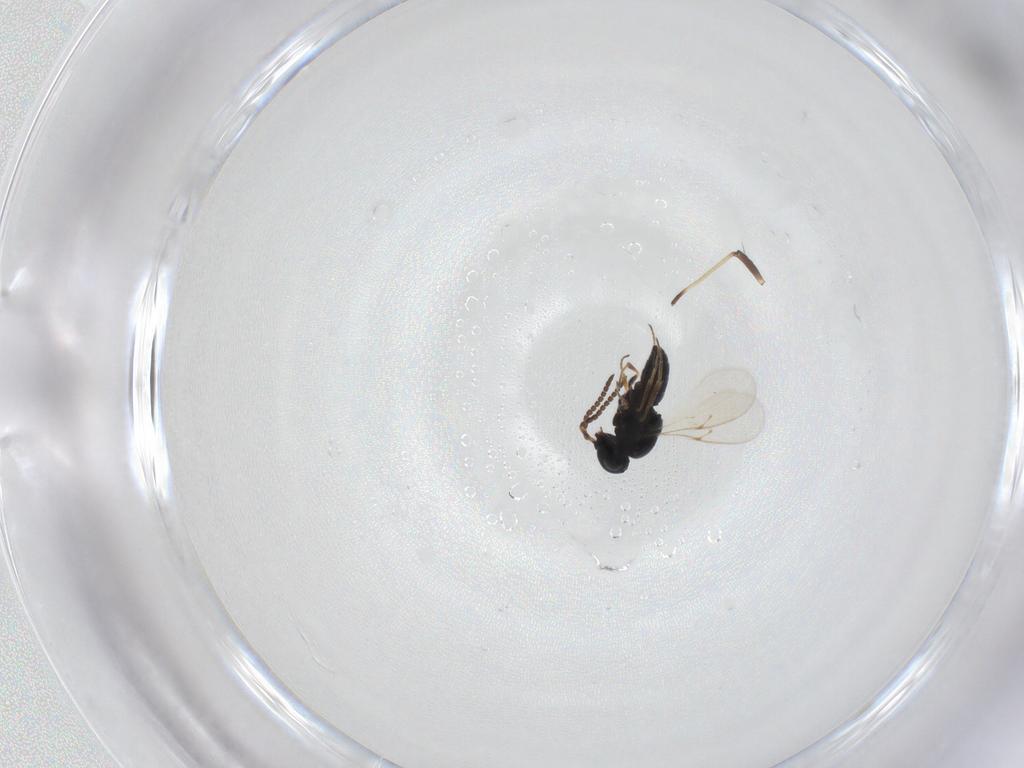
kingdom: Animalia
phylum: Arthropoda
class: Insecta
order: Hymenoptera
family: Scelionidae
